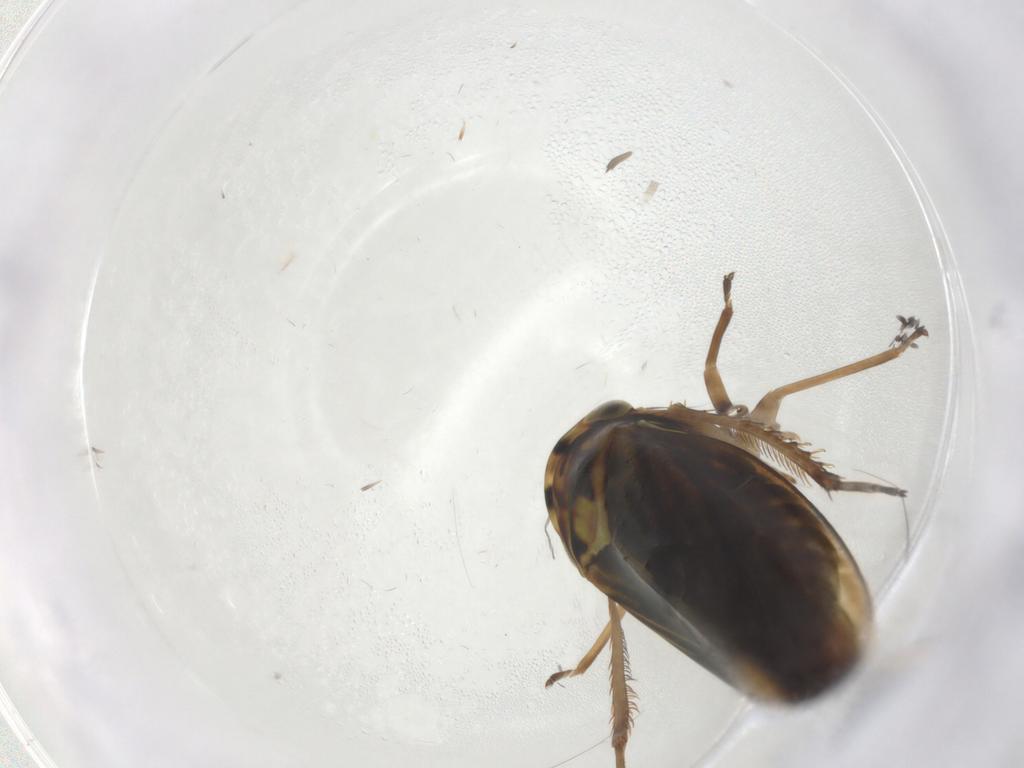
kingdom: Animalia
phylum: Arthropoda
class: Insecta
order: Hemiptera
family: Cicadellidae
